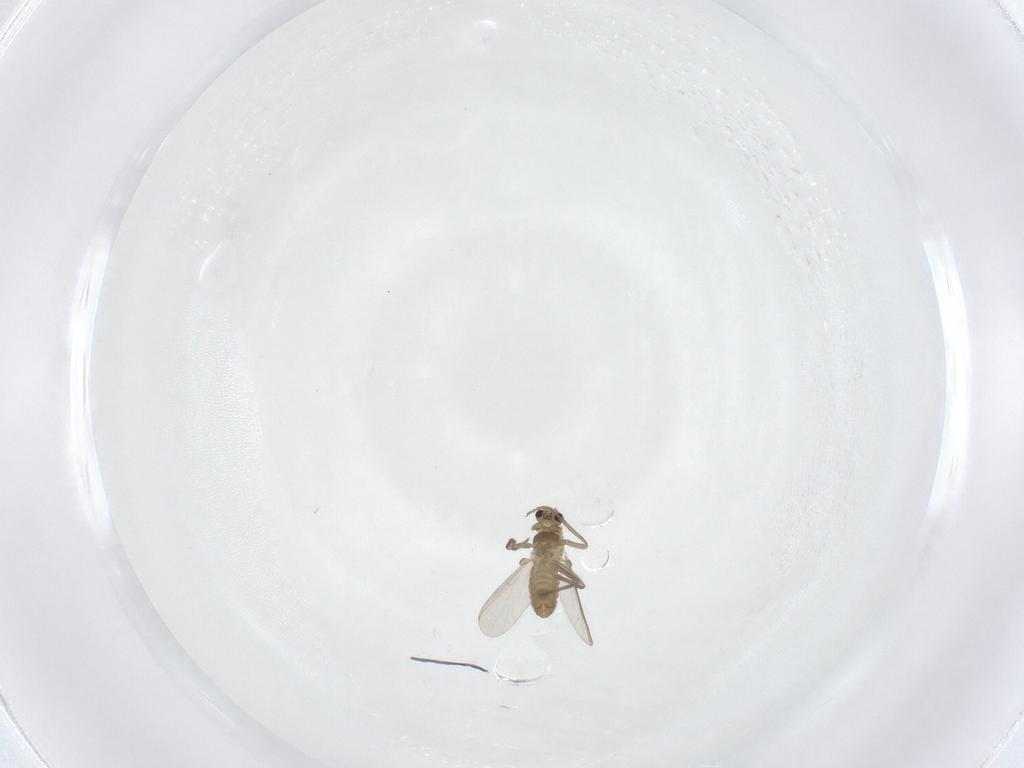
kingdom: Animalia
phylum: Arthropoda
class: Insecta
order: Diptera
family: Chironomidae
